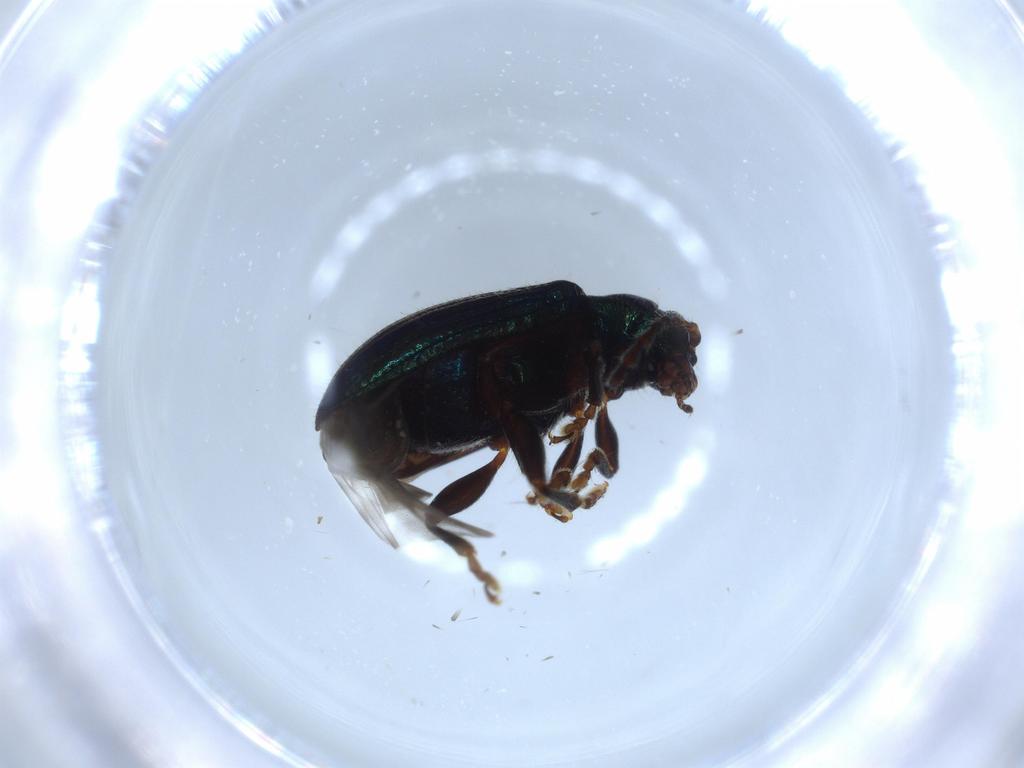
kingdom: Animalia
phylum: Arthropoda
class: Insecta
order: Coleoptera
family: Chrysomelidae
